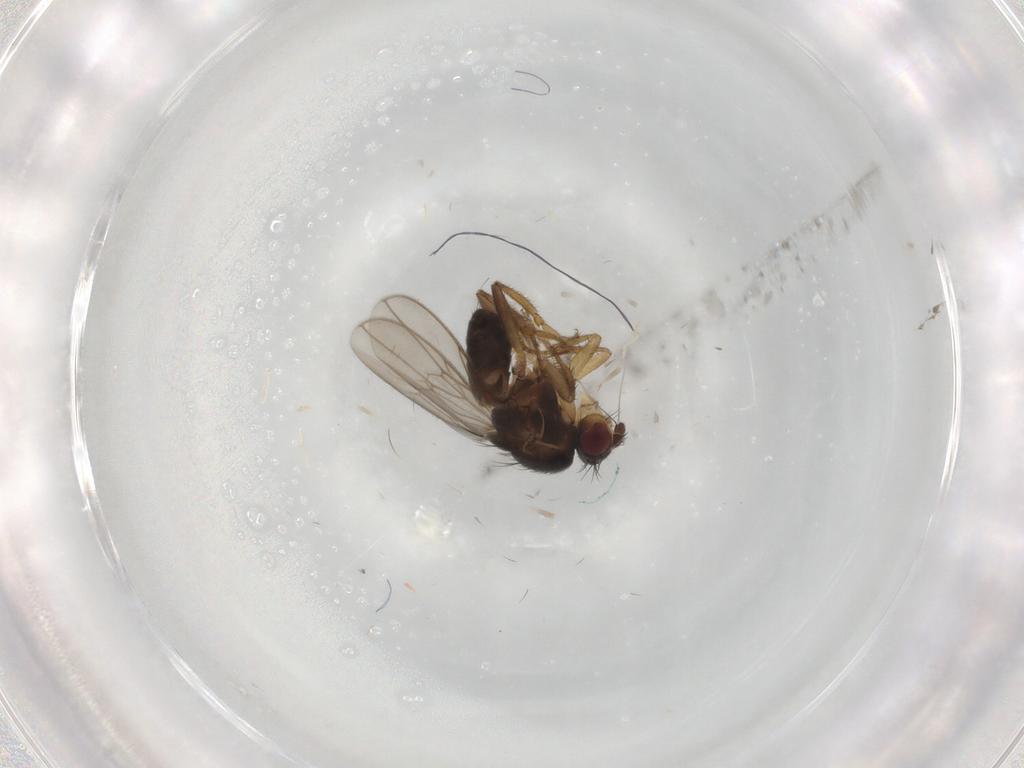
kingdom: Animalia
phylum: Arthropoda
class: Insecta
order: Diptera
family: Sphaeroceridae
